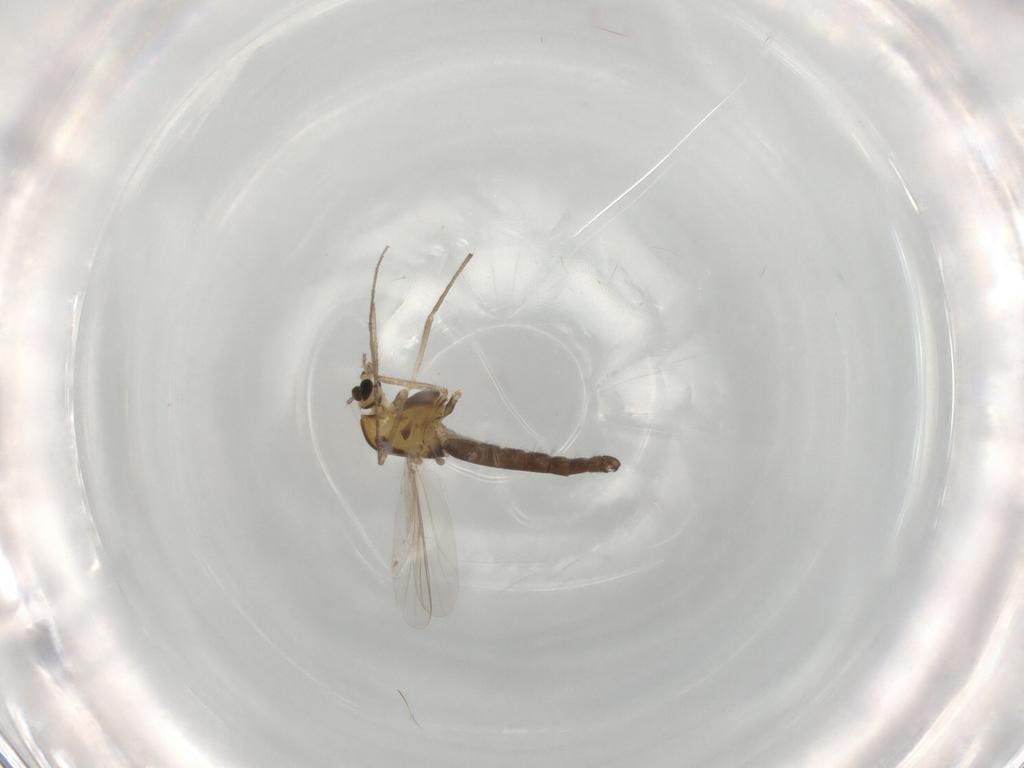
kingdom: Animalia
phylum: Arthropoda
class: Insecta
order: Diptera
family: Chironomidae
